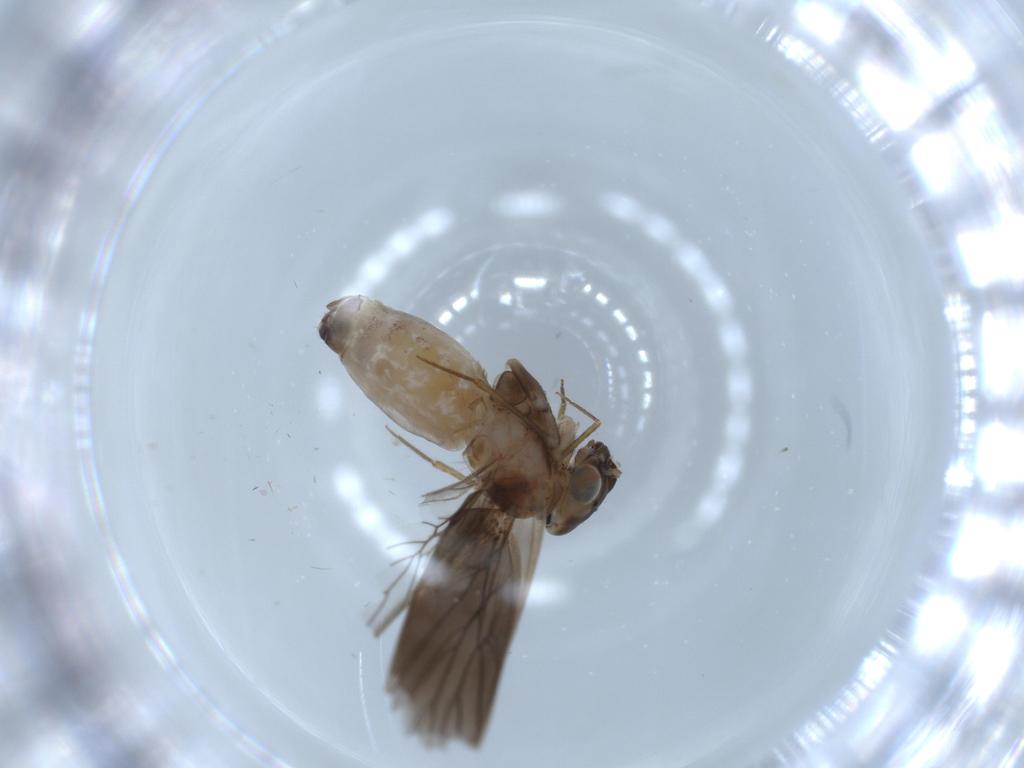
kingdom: Animalia
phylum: Arthropoda
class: Insecta
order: Psocodea
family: Lepidopsocidae
